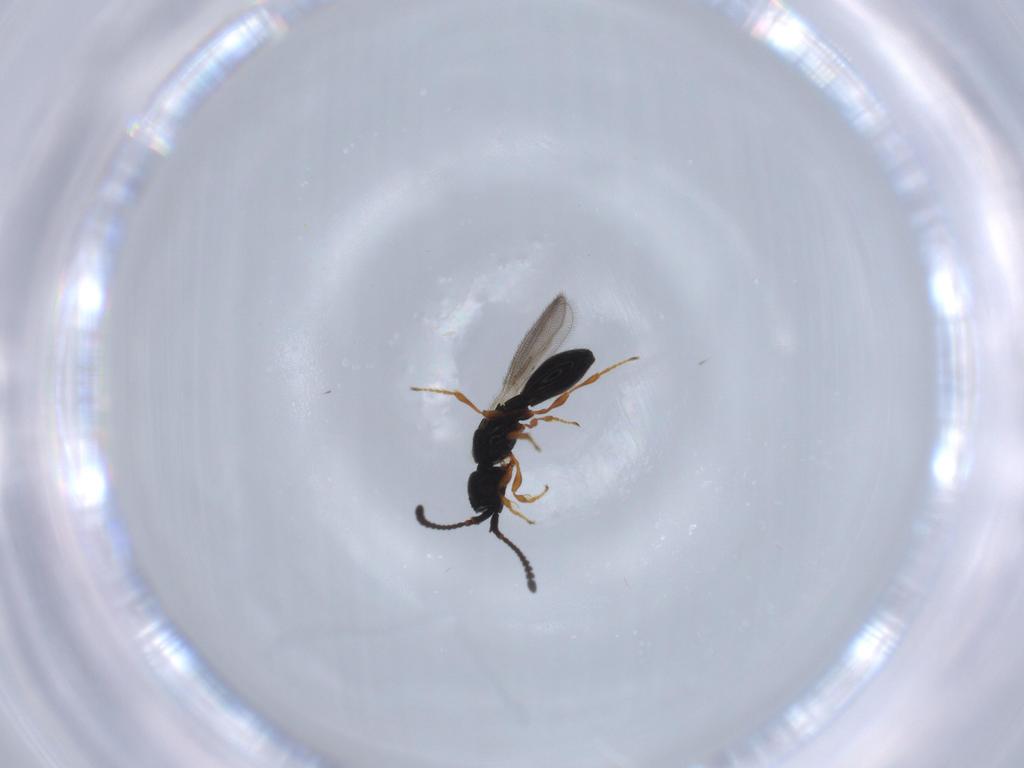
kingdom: Animalia
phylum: Arthropoda
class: Insecta
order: Hymenoptera
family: Diapriidae
